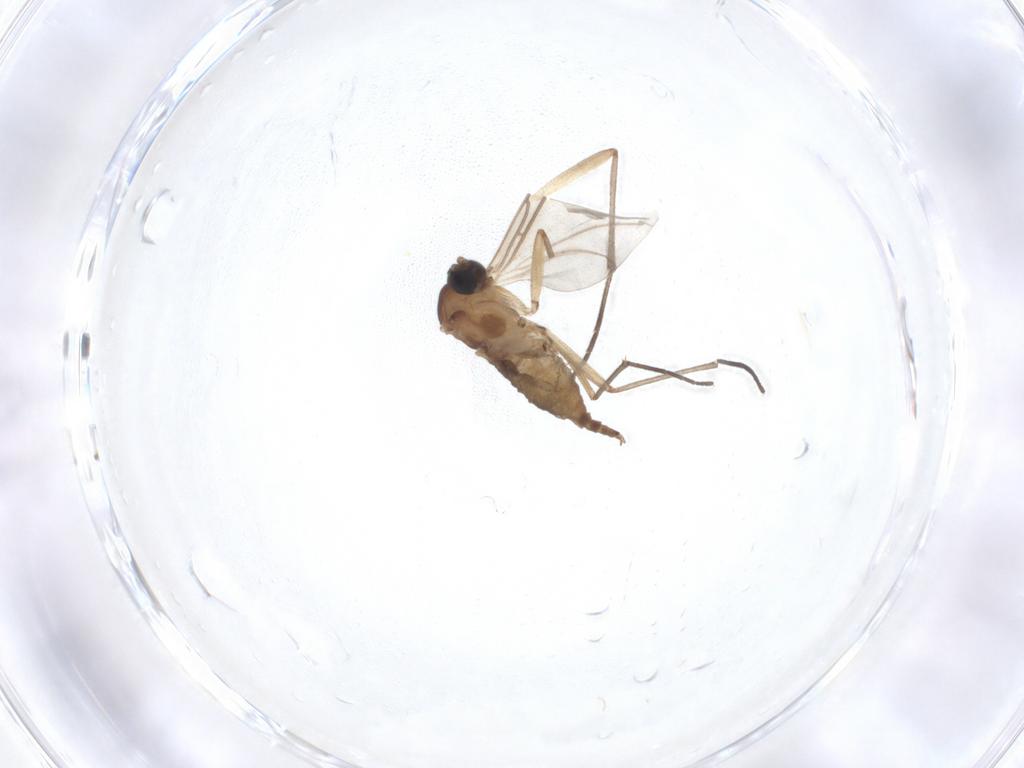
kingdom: Animalia
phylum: Arthropoda
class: Insecta
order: Diptera
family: Sciaridae
